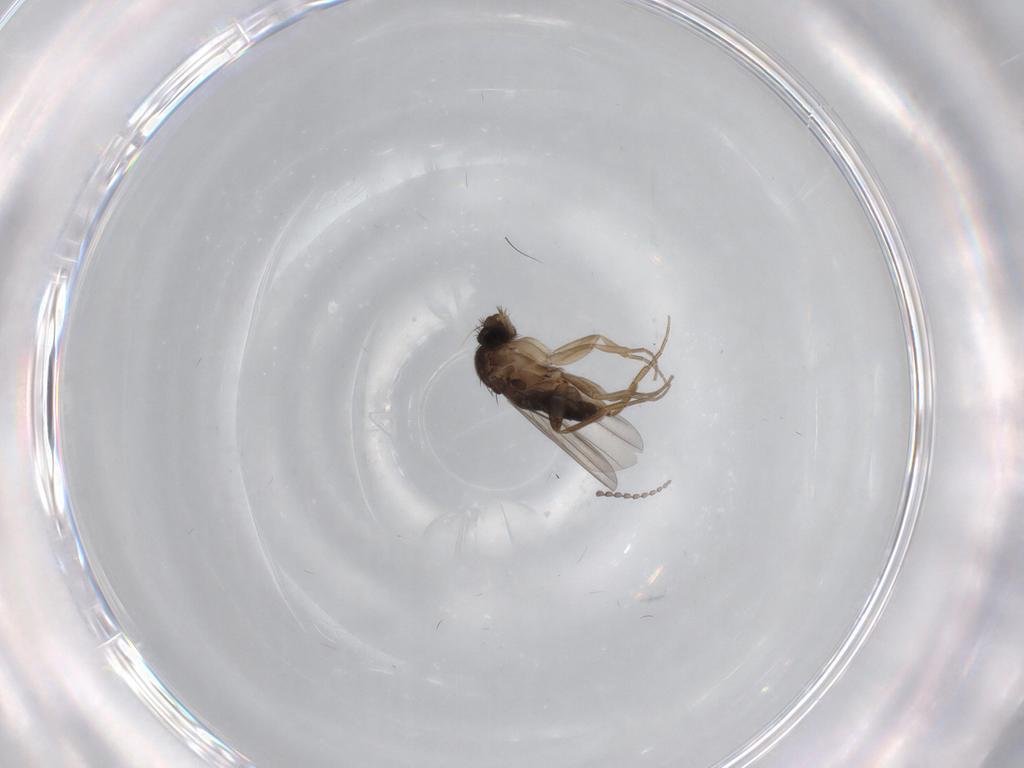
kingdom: Animalia
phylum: Arthropoda
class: Insecta
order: Diptera
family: Phoridae
